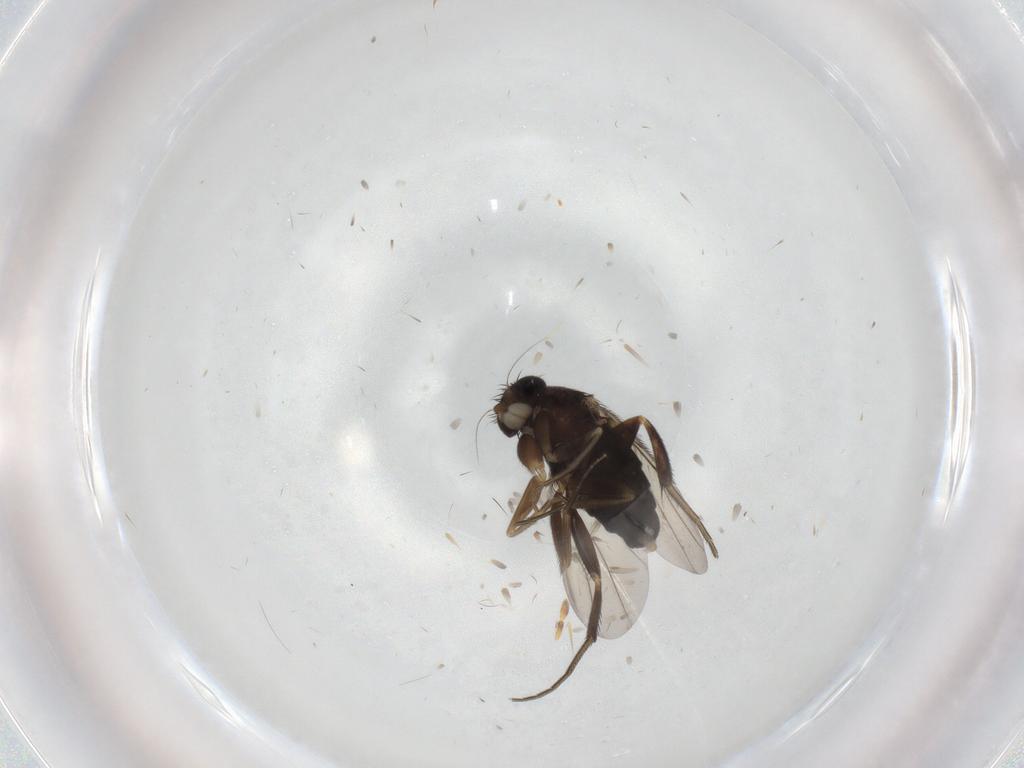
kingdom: Animalia
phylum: Arthropoda
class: Insecta
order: Diptera
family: Phoridae
